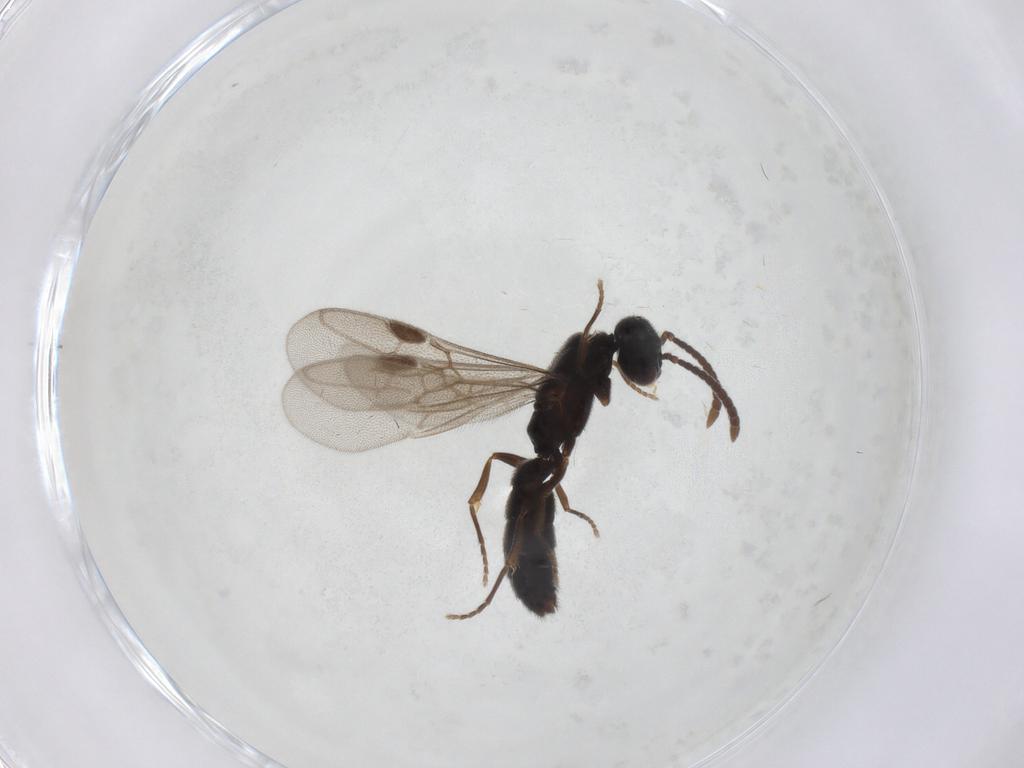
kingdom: Animalia
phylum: Arthropoda
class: Insecta
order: Hymenoptera
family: Formicidae
